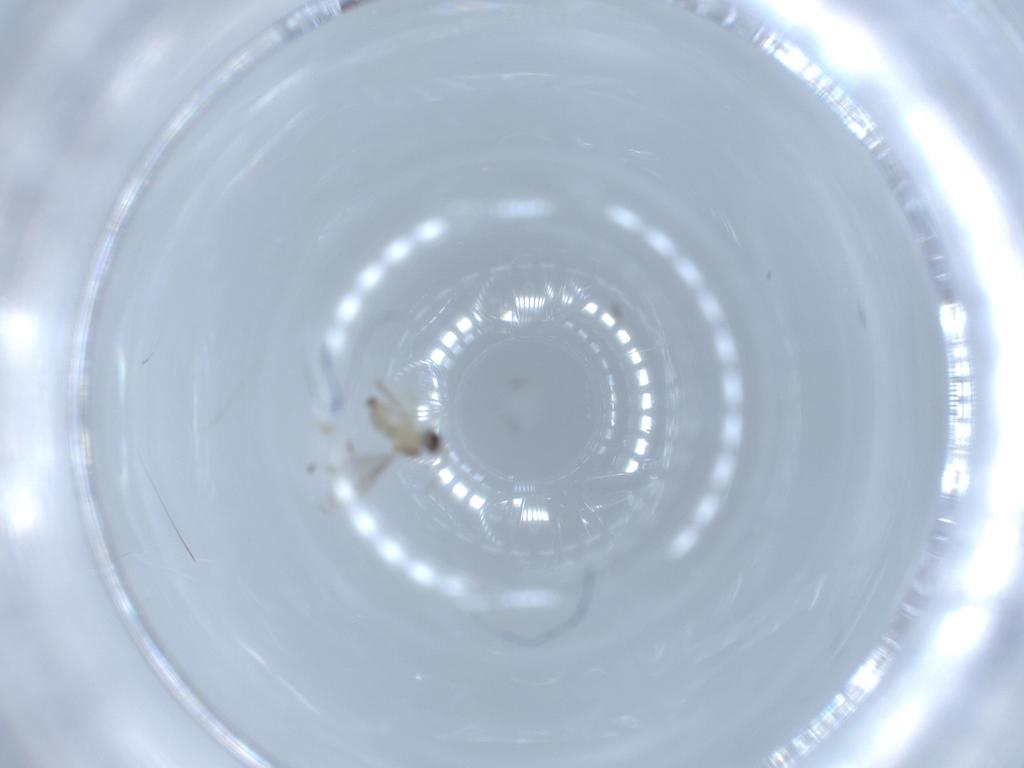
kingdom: Animalia
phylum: Arthropoda
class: Insecta
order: Diptera
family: Cecidomyiidae
